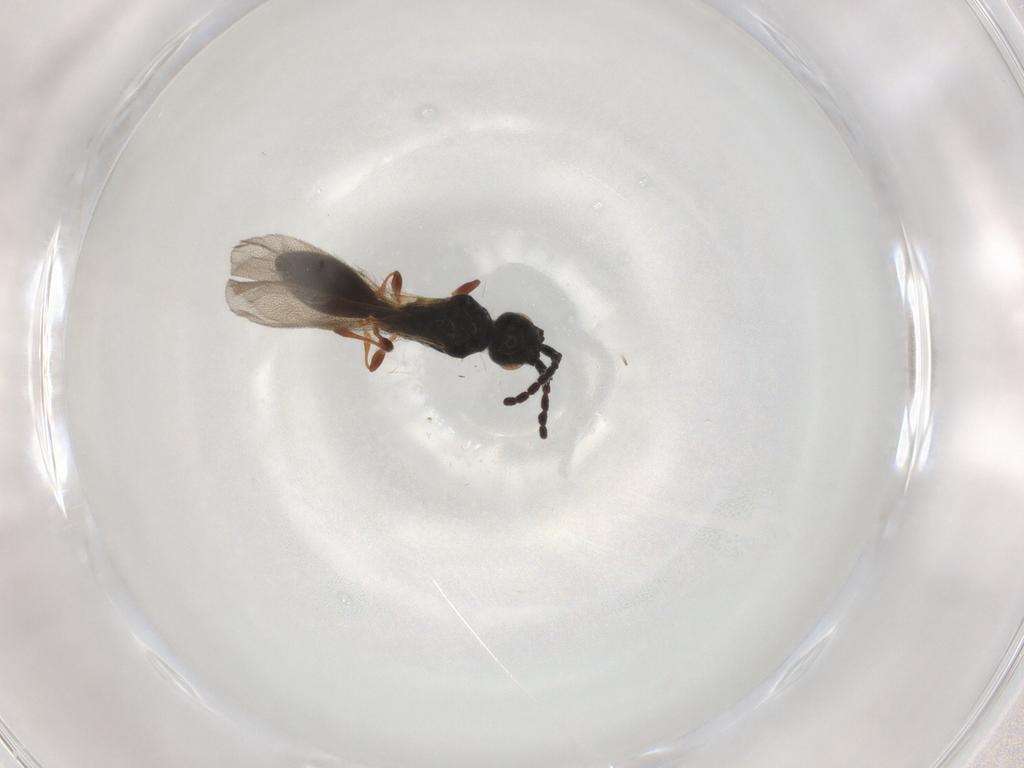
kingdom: Animalia
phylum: Arthropoda
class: Insecta
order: Hymenoptera
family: Diapriidae
